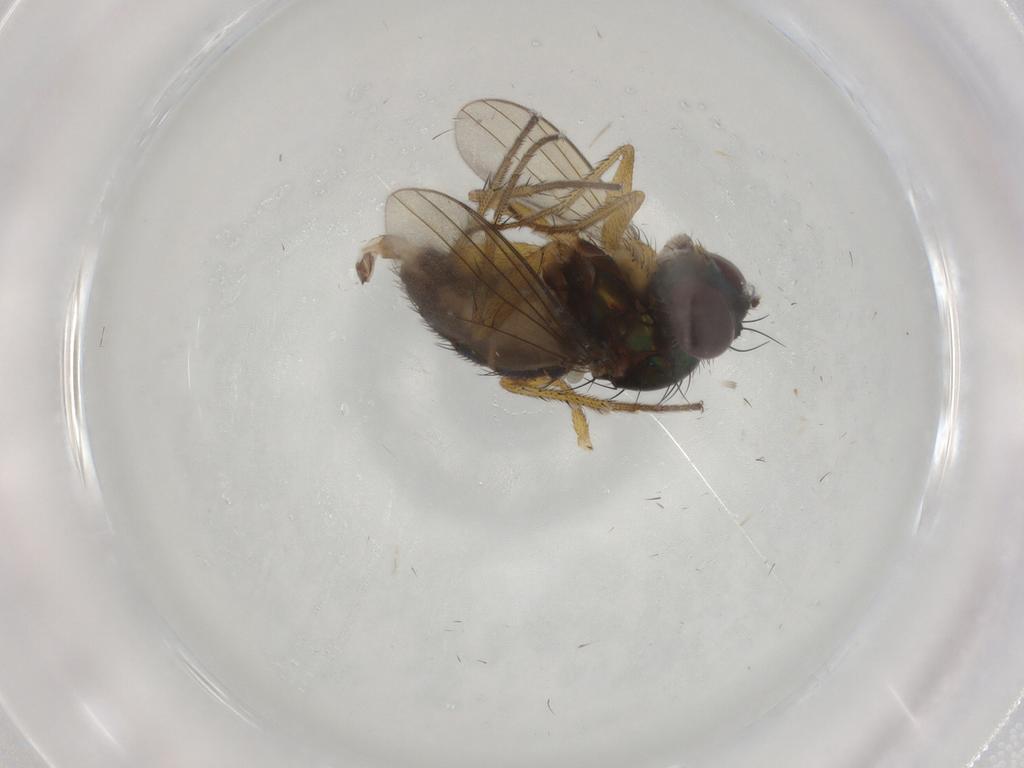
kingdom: Animalia
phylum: Arthropoda
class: Insecta
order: Diptera
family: Dolichopodidae
